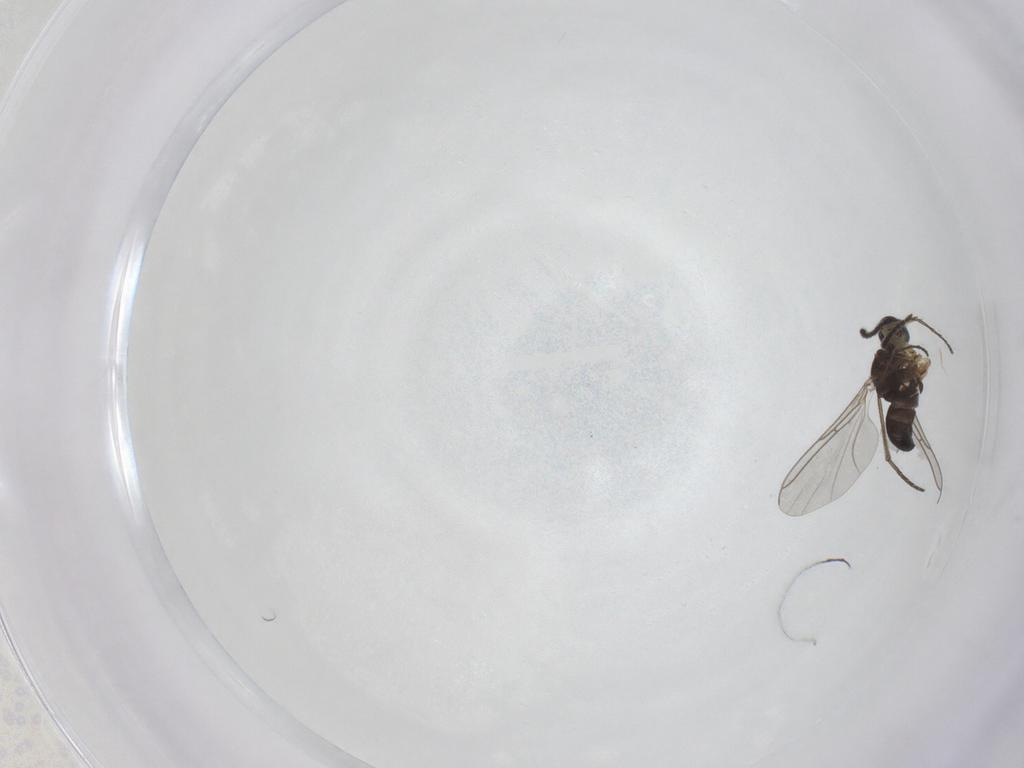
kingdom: Animalia
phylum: Arthropoda
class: Insecta
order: Diptera
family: Sciaridae
